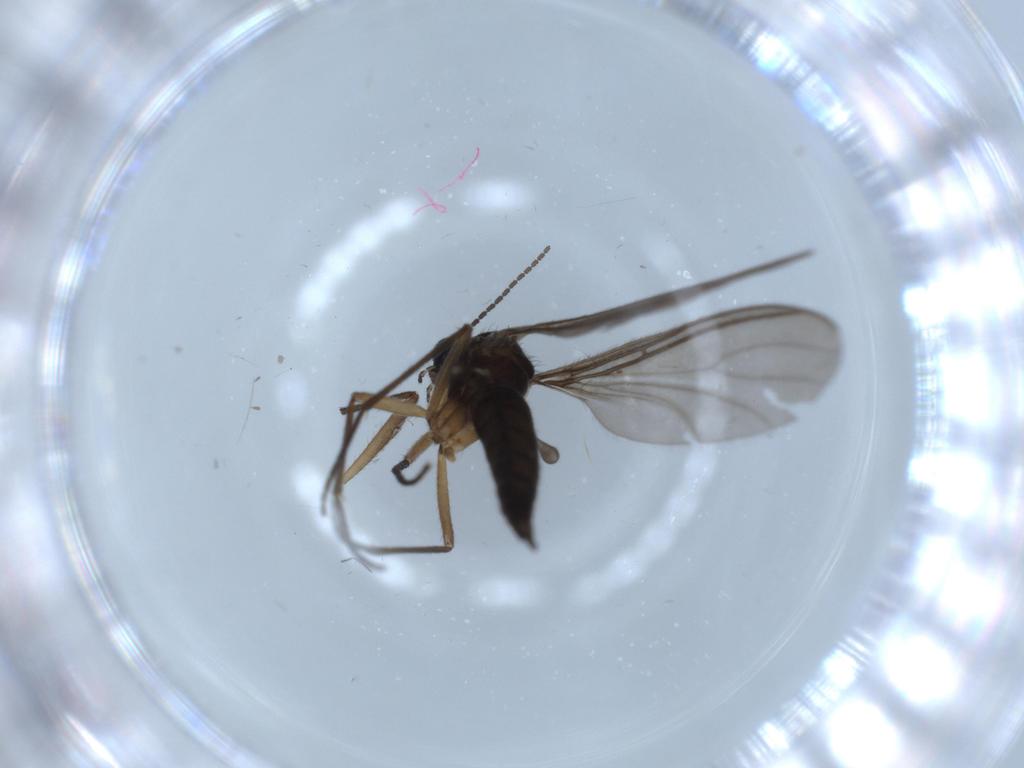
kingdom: Animalia
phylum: Arthropoda
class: Insecta
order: Diptera
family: Sciaridae
